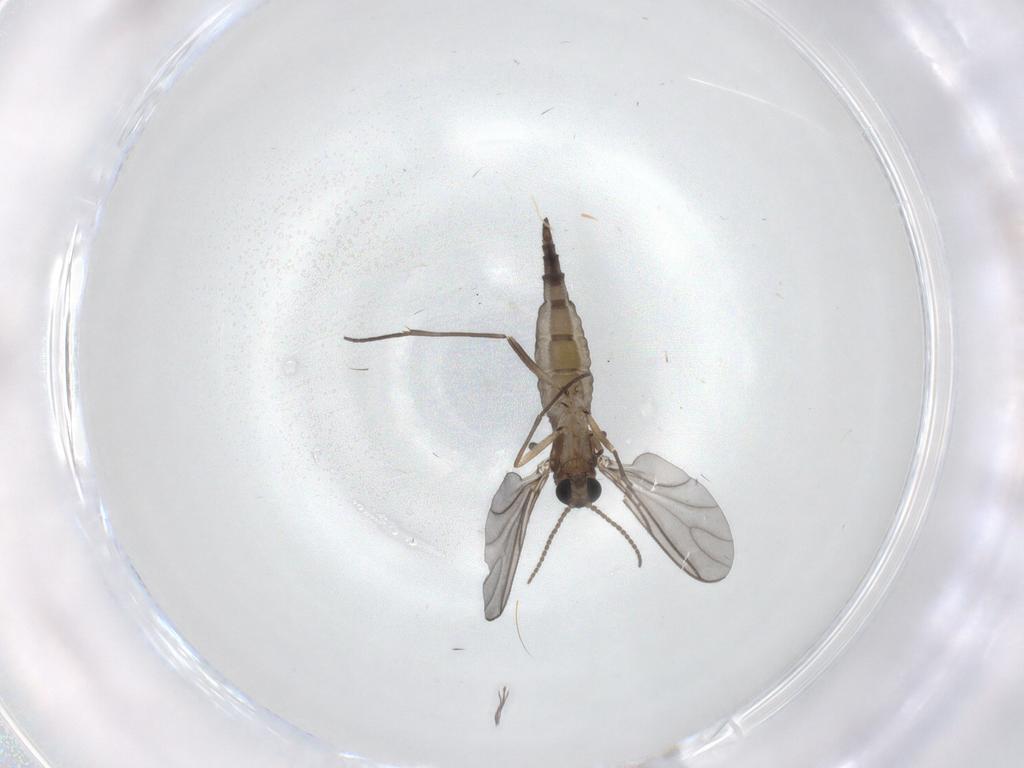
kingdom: Animalia
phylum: Arthropoda
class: Insecta
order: Diptera
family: Sciaridae
